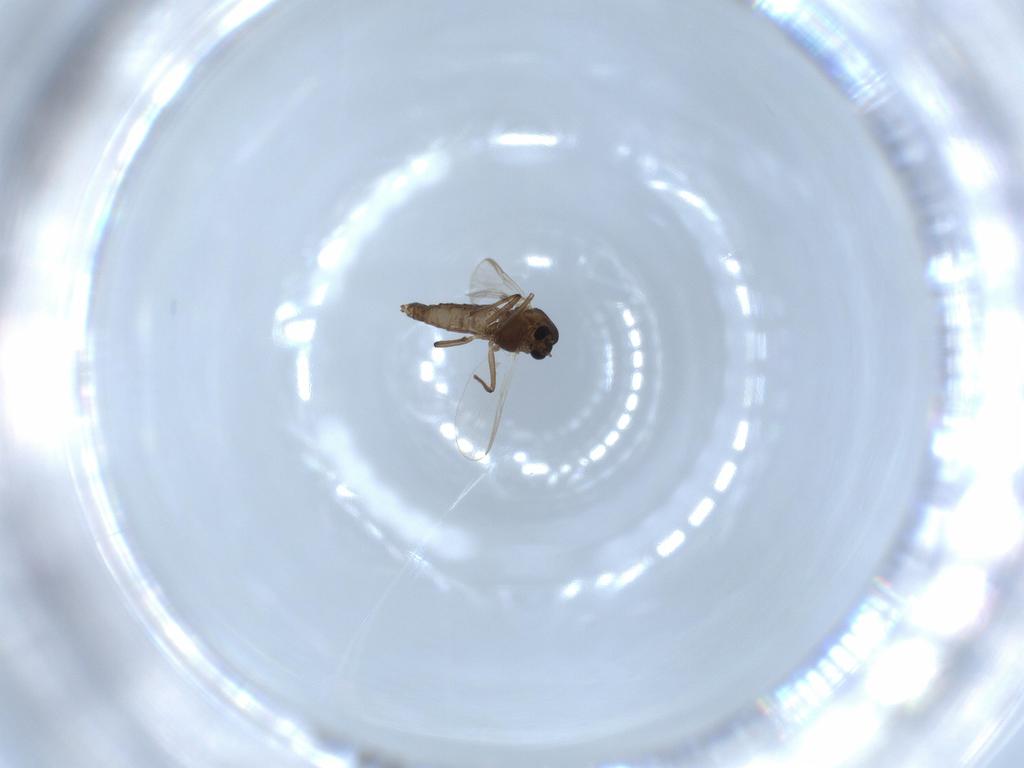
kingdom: Animalia
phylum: Arthropoda
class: Insecta
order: Diptera
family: Chironomidae
